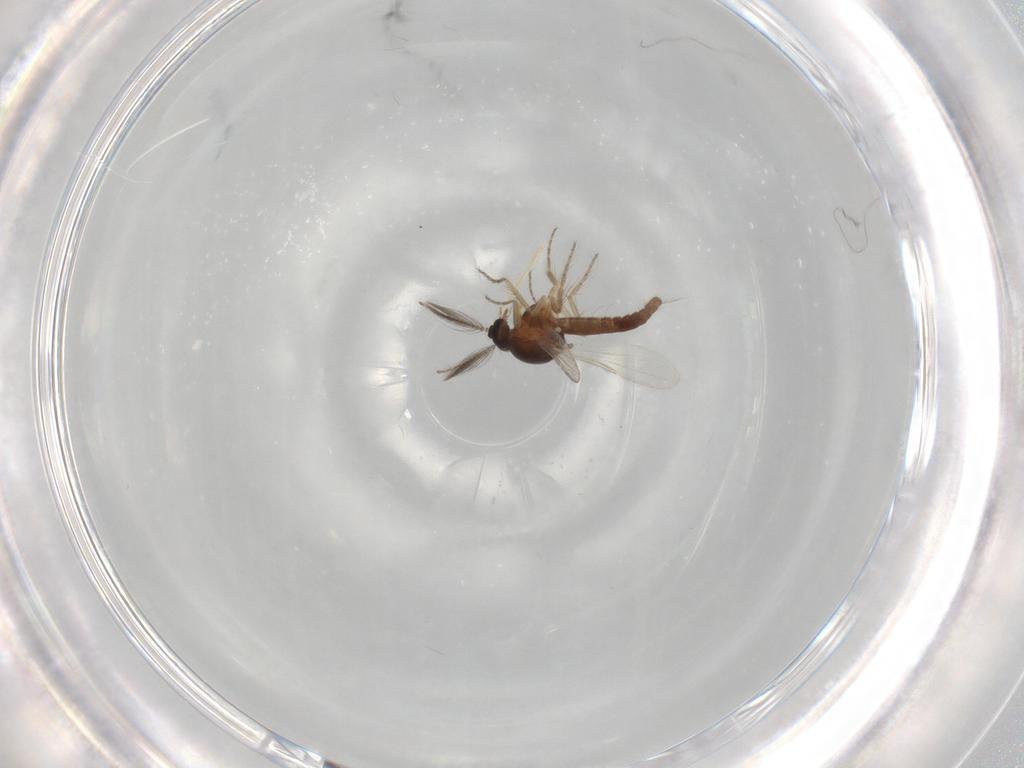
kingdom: Animalia
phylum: Arthropoda
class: Insecta
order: Diptera
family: Ceratopogonidae
